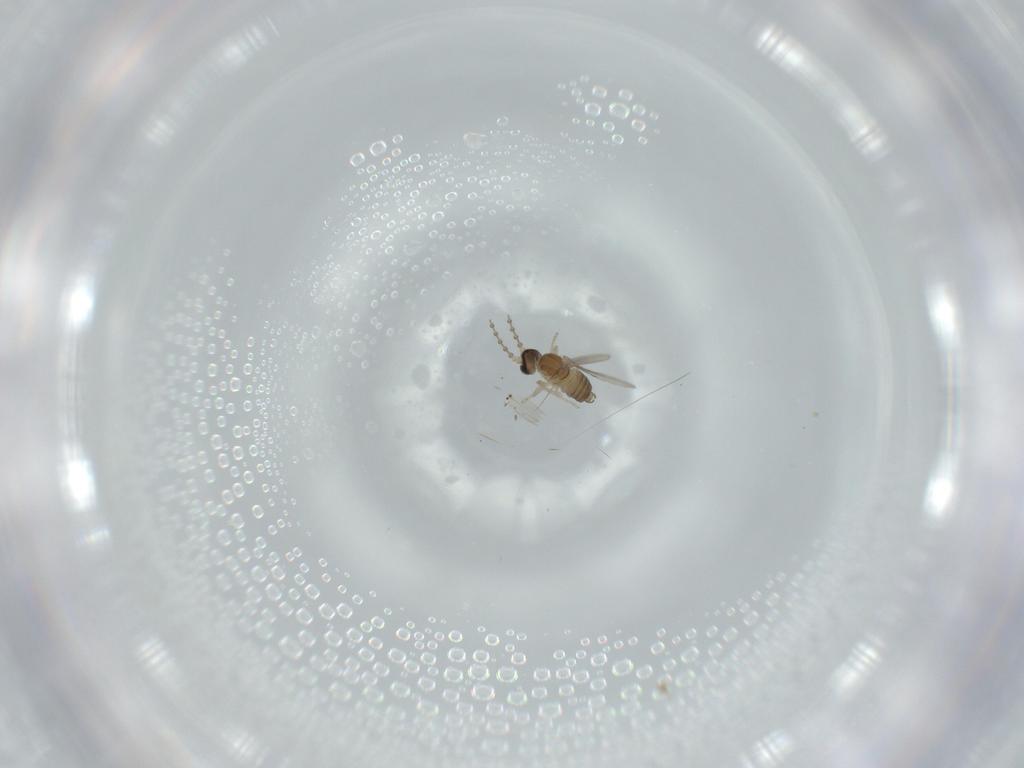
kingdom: Animalia
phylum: Arthropoda
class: Insecta
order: Diptera
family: Cecidomyiidae
